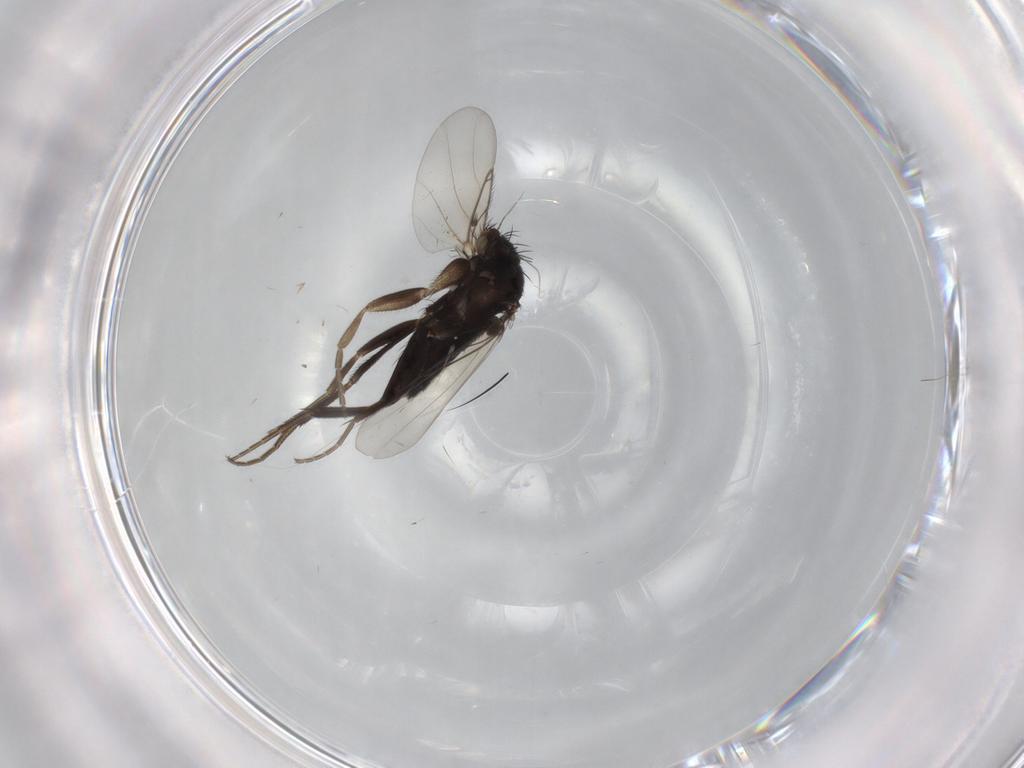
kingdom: Animalia
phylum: Arthropoda
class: Insecta
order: Diptera
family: Phoridae
